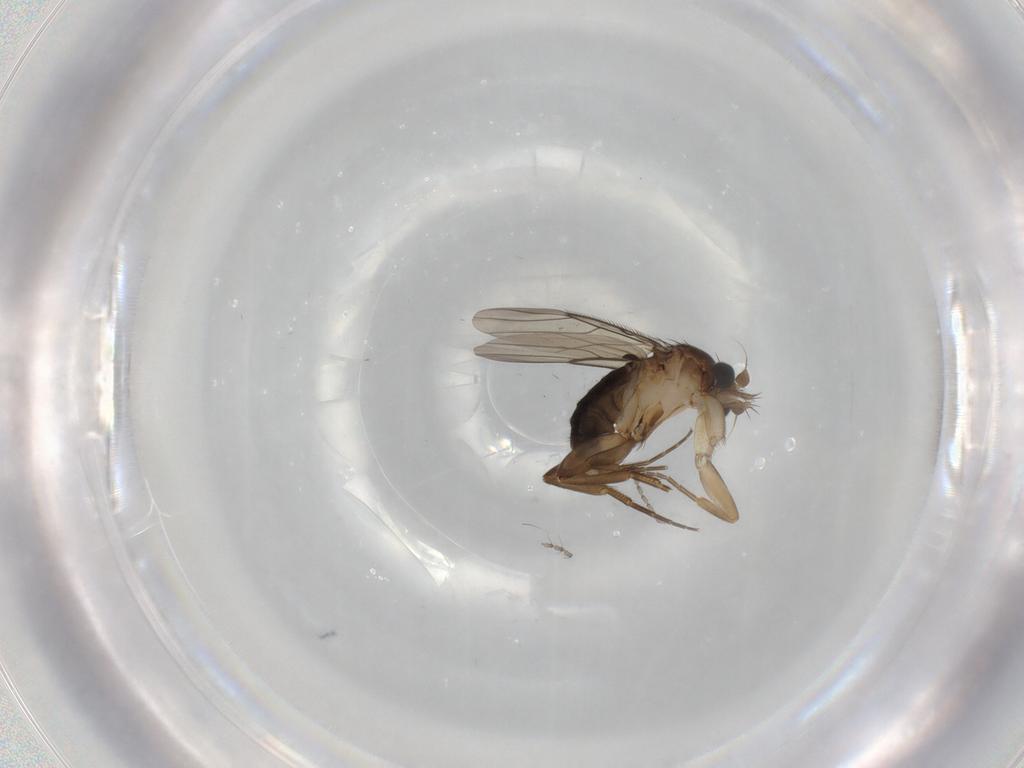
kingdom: Animalia
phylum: Arthropoda
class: Insecta
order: Diptera
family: Phoridae
